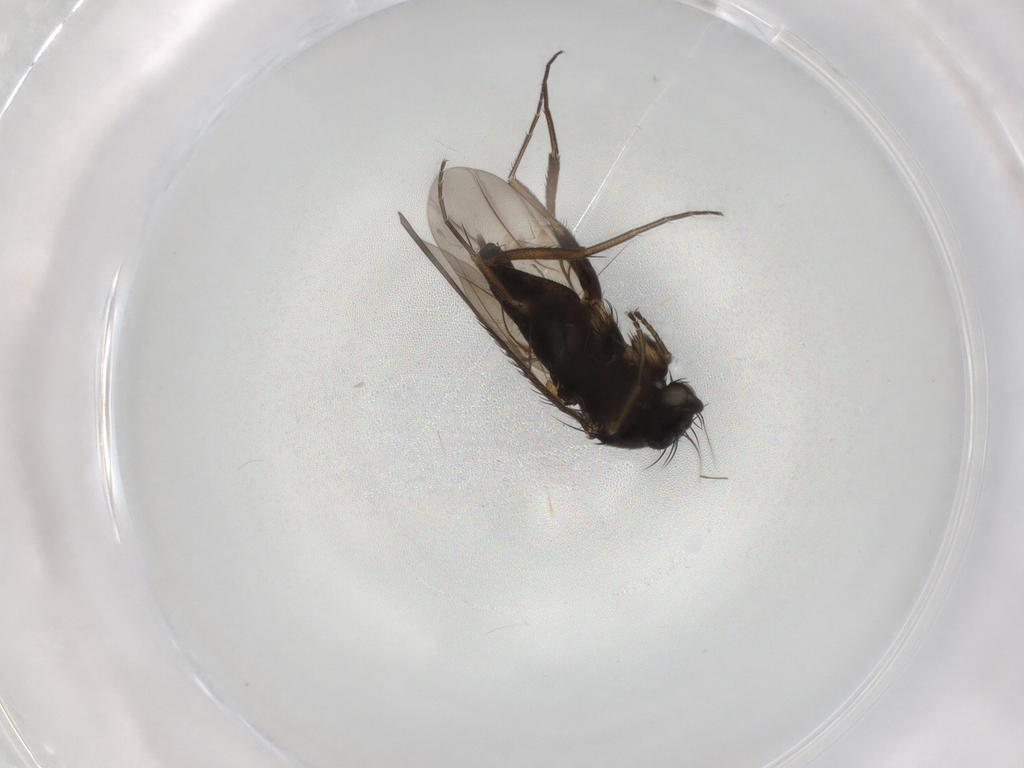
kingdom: Animalia
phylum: Arthropoda
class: Insecta
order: Diptera
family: Phoridae
